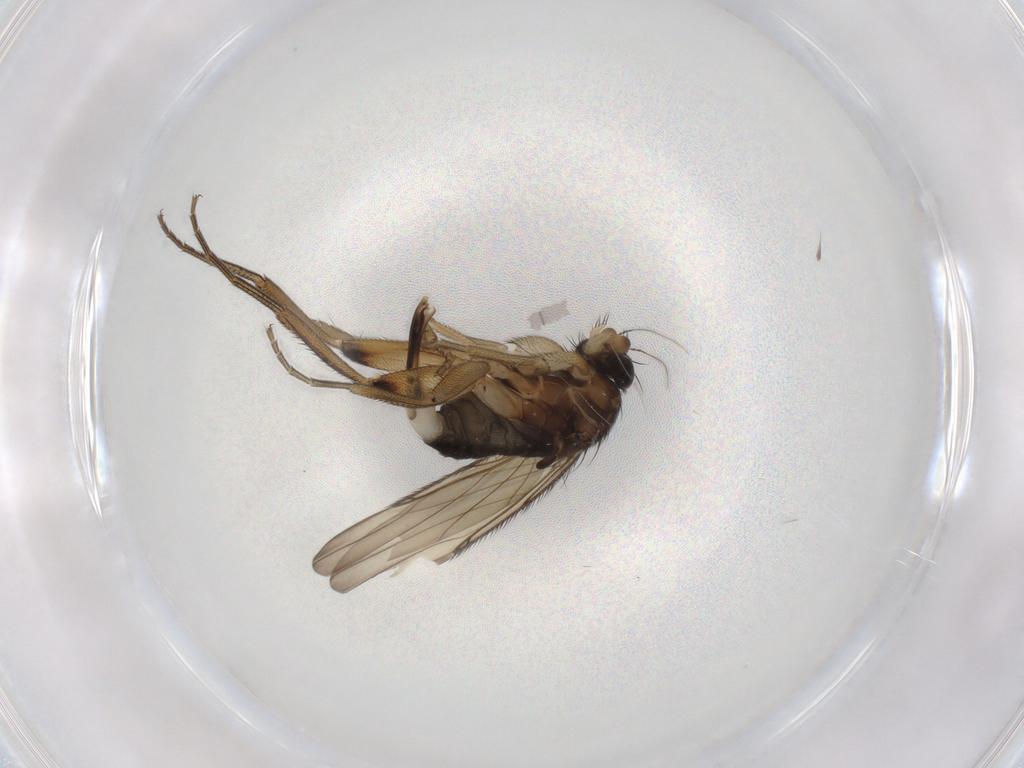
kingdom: Animalia
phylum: Arthropoda
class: Insecta
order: Diptera
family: Phoridae
